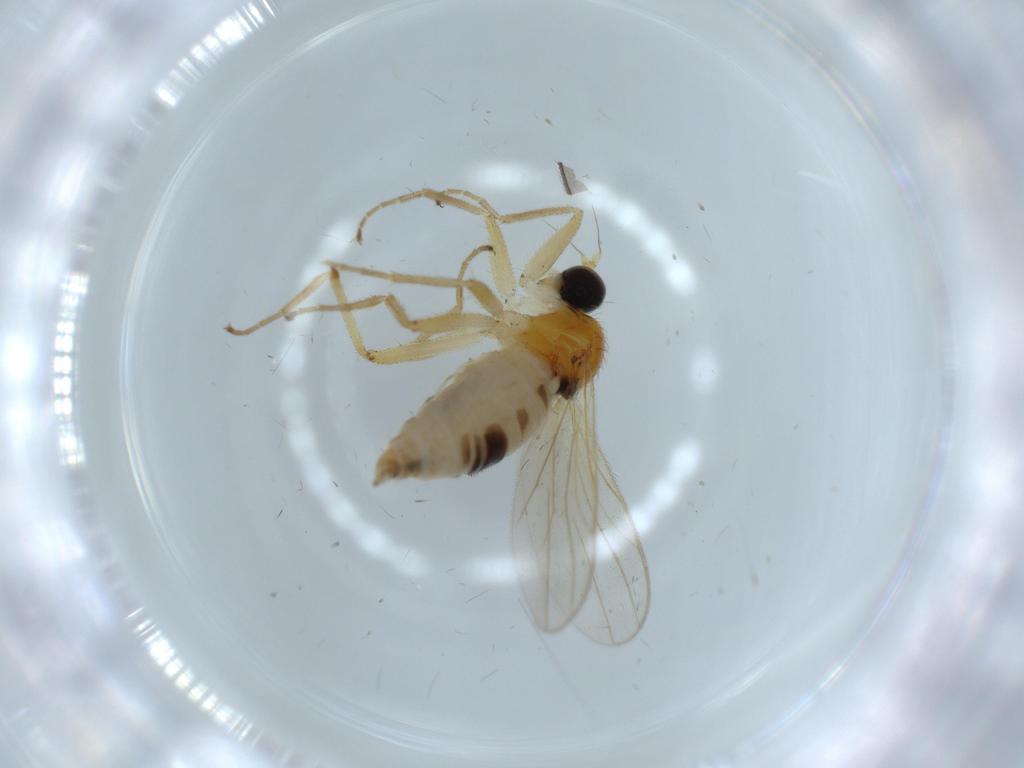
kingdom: Animalia
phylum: Arthropoda
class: Insecta
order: Diptera
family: Hybotidae
